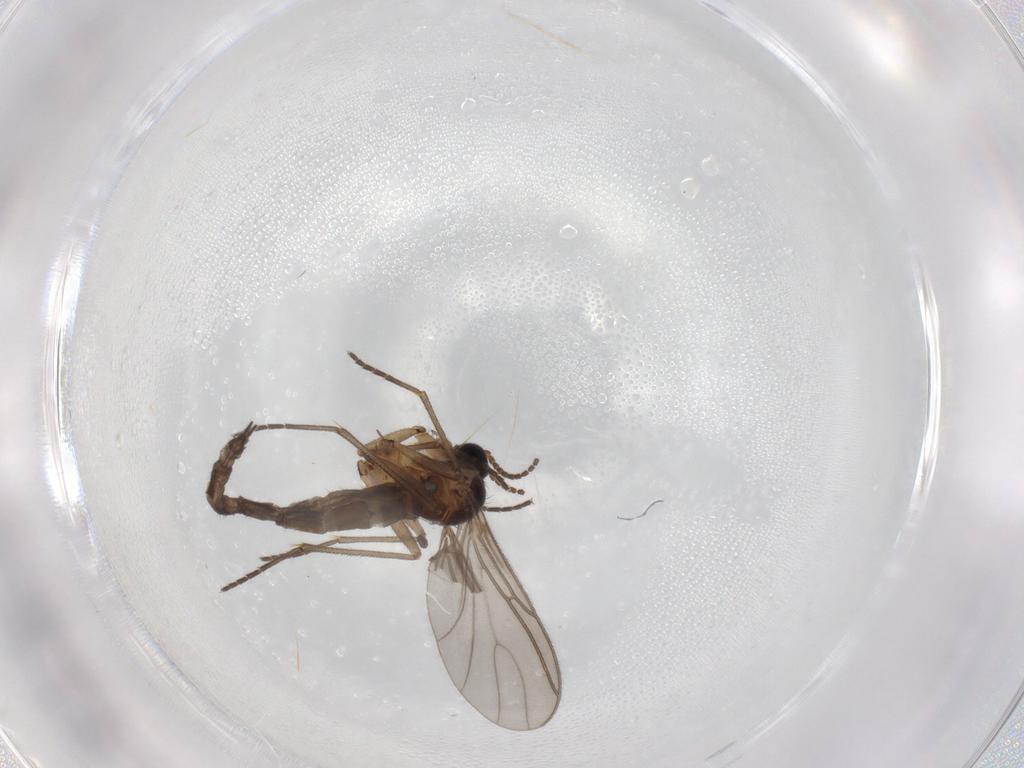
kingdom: Animalia
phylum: Arthropoda
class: Insecta
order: Diptera
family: Sciaridae
